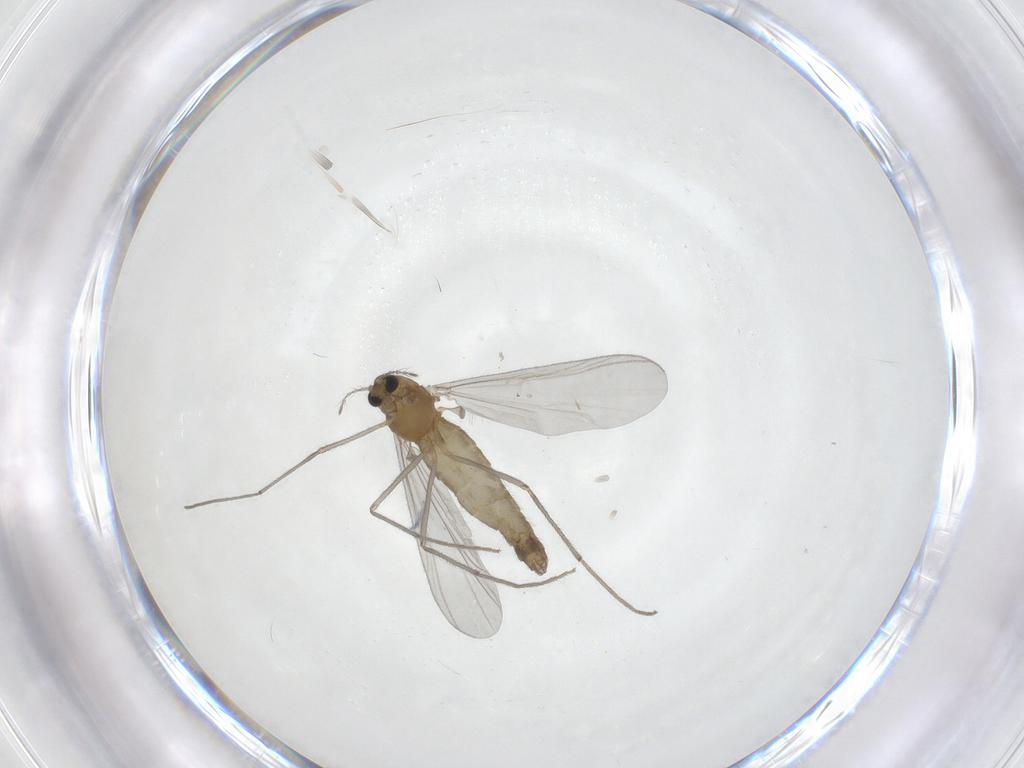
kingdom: Animalia
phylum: Arthropoda
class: Insecta
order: Diptera
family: Chironomidae
